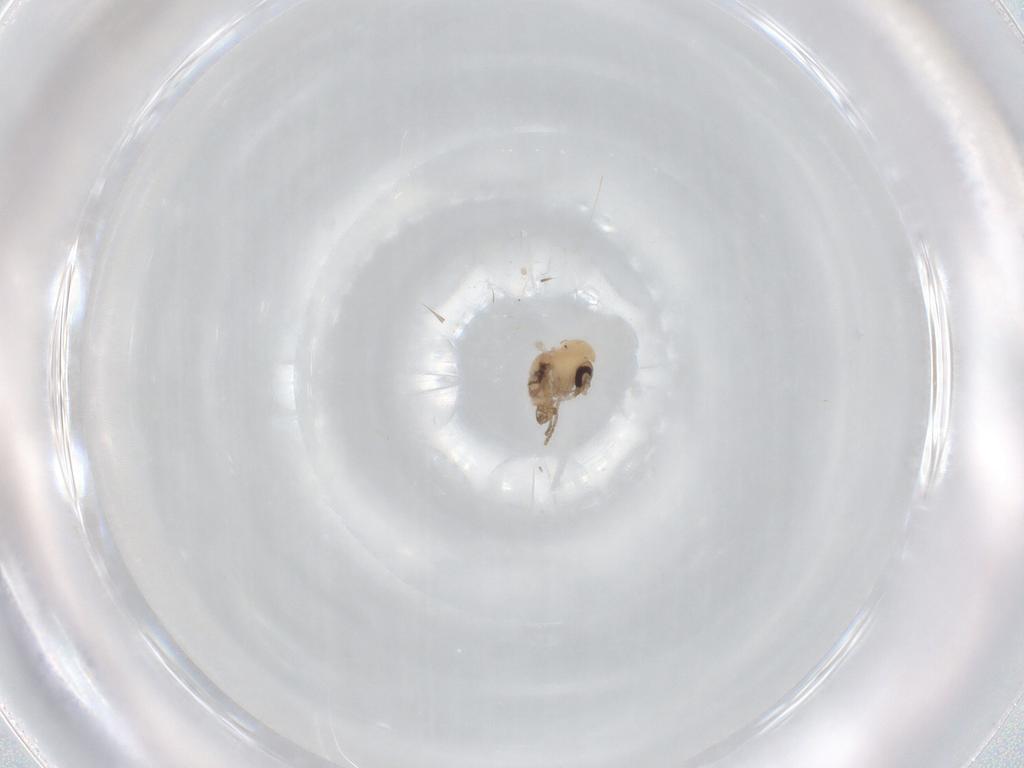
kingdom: Animalia
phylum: Arthropoda
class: Insecta
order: Diptera
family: Psychodidae
